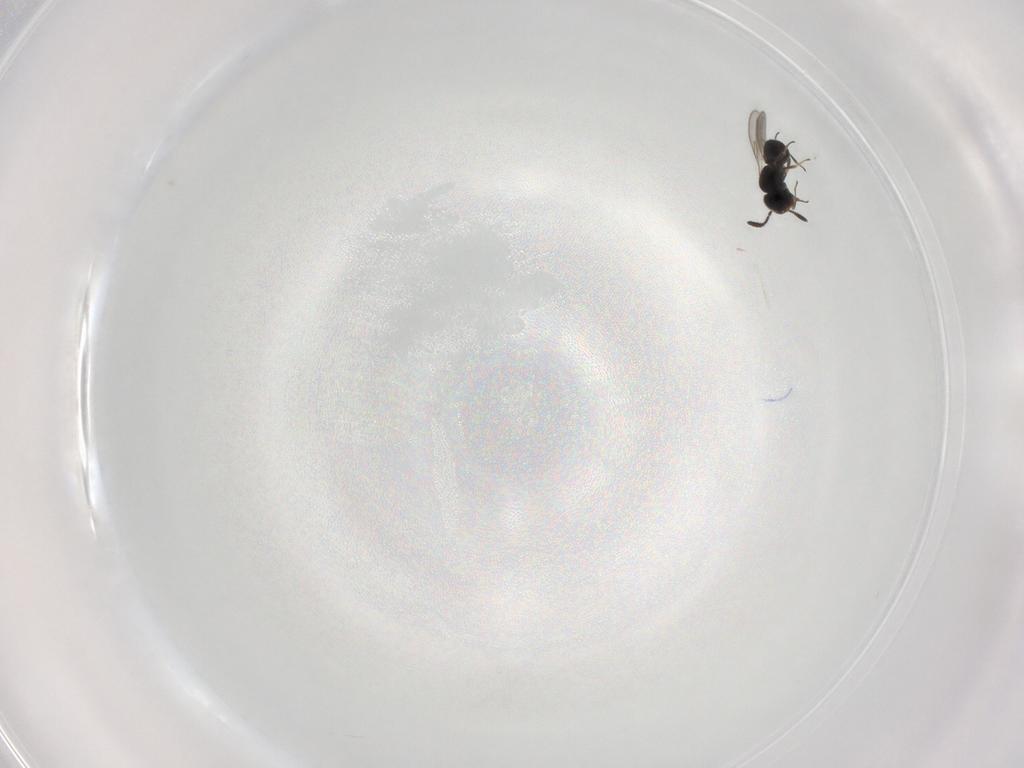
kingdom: Animalia
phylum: Arthropoda
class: Insecta
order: Hymenoptera
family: Scelionidae
